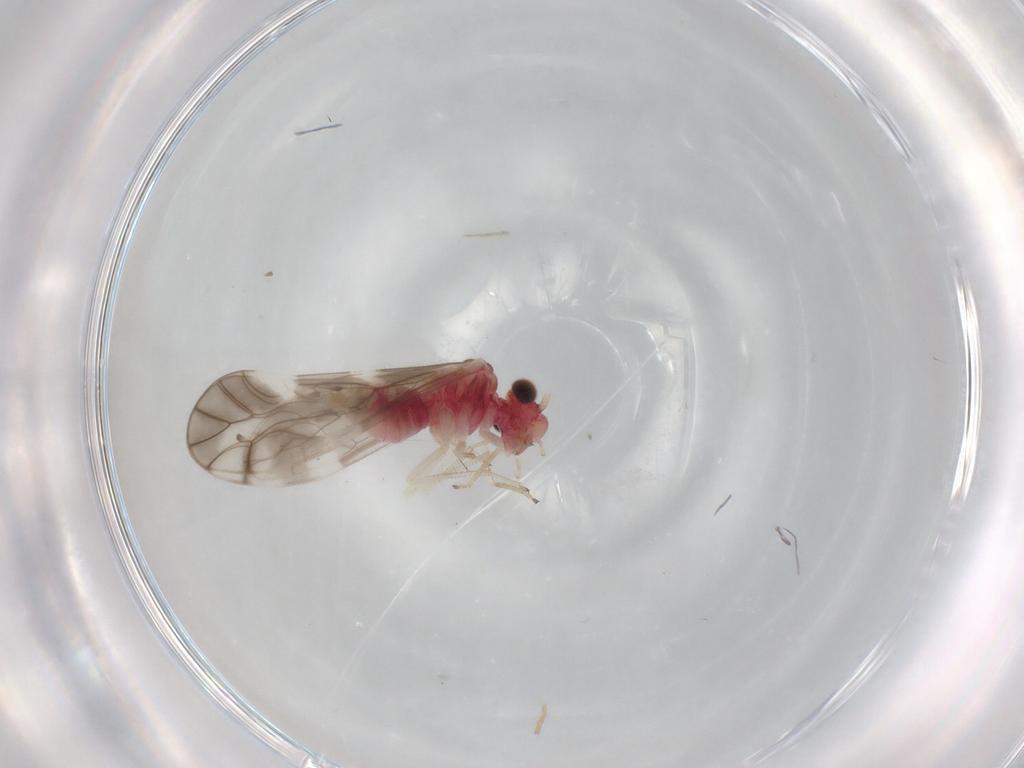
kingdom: Animalia
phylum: Arthropoda
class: Insecta
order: Psocodea
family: Caeciliusidae
